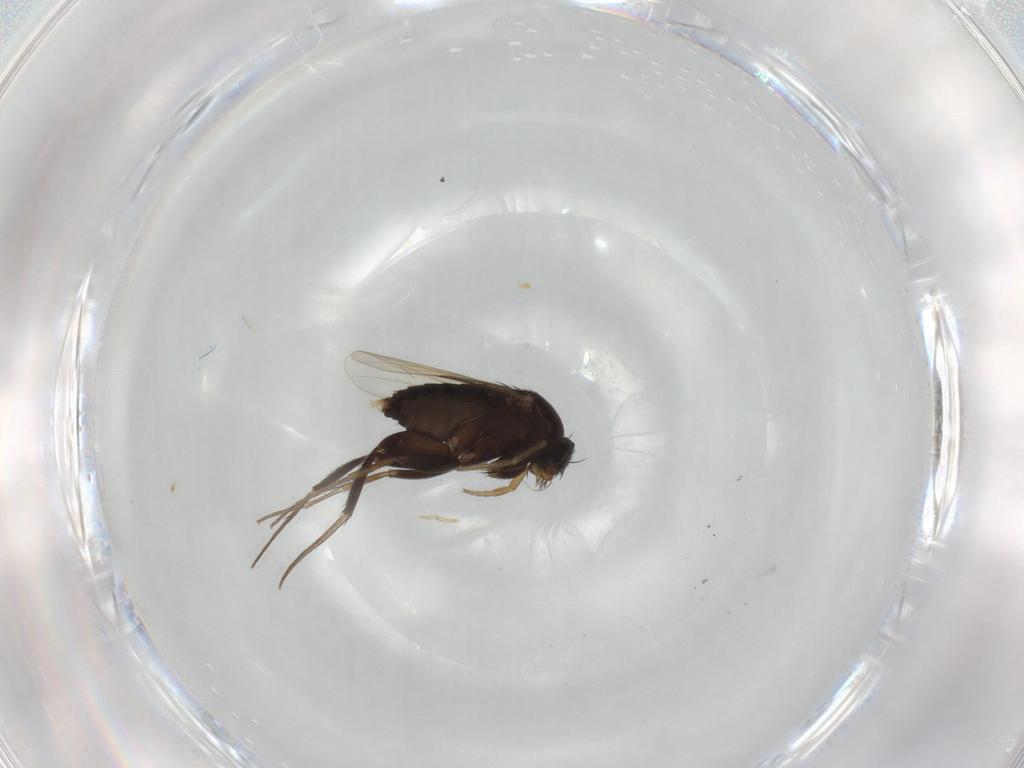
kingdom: Animalia
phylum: Arthropoda
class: Insecta
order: Diptera
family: Phoridae
